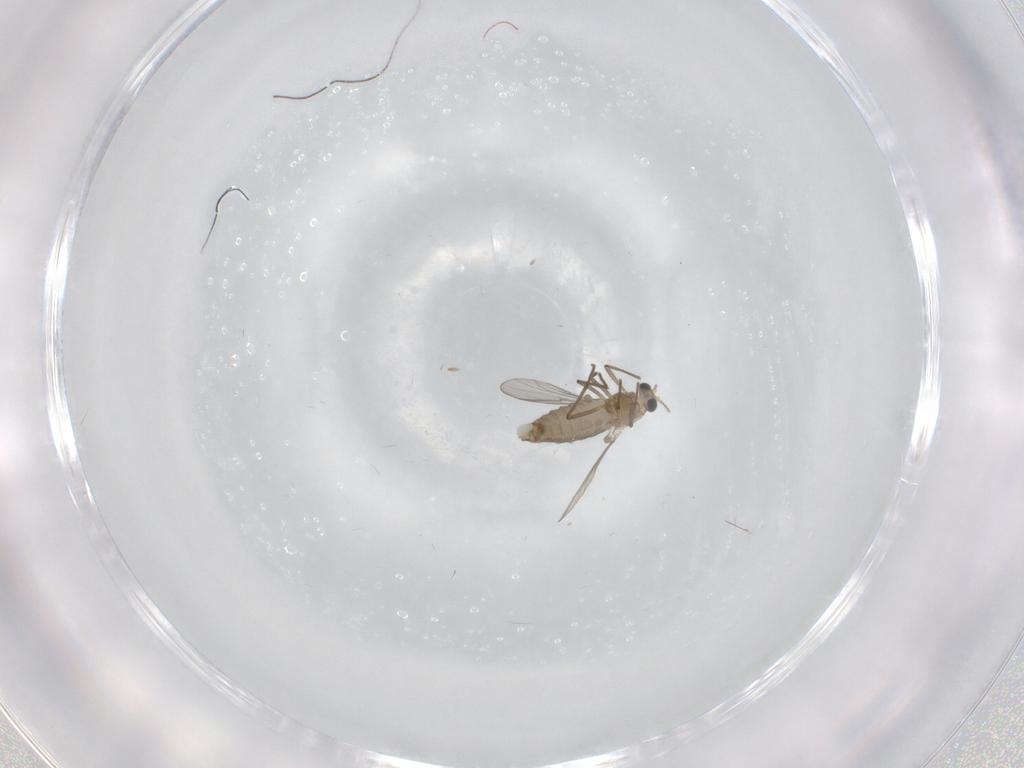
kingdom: Animalia
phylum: Arthropoda
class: Insecta
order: Diptera
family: Chironomidae
